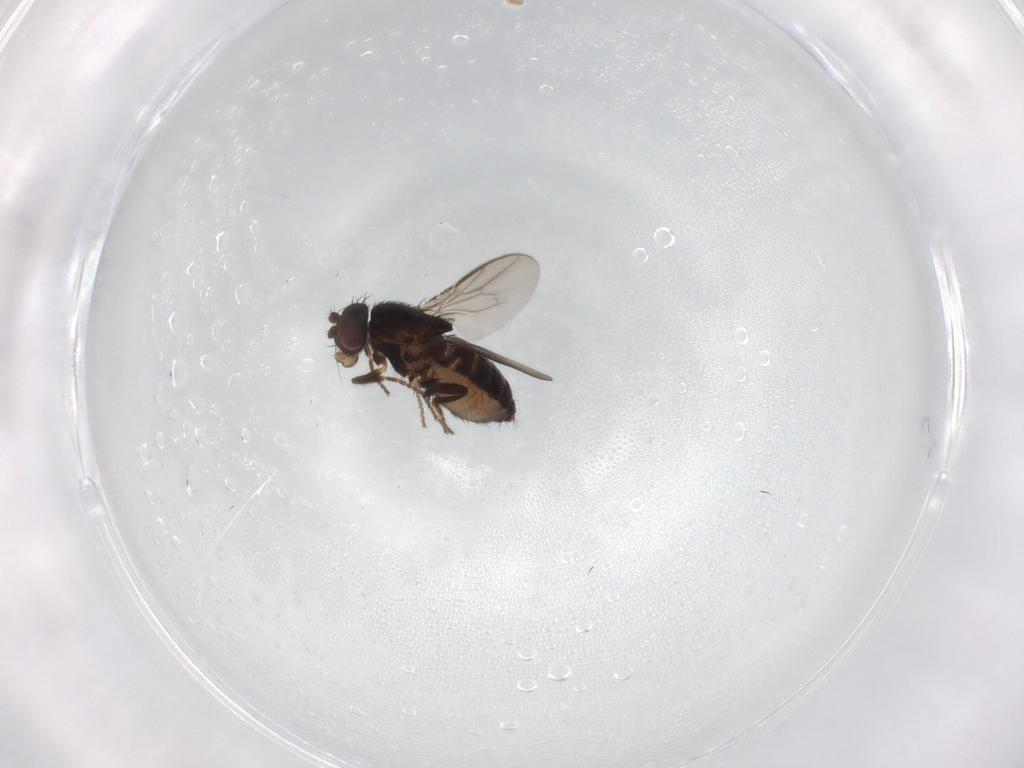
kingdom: Animalia
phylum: Arthropoda
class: Insecta
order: Diptera
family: Sphaeroceridae
